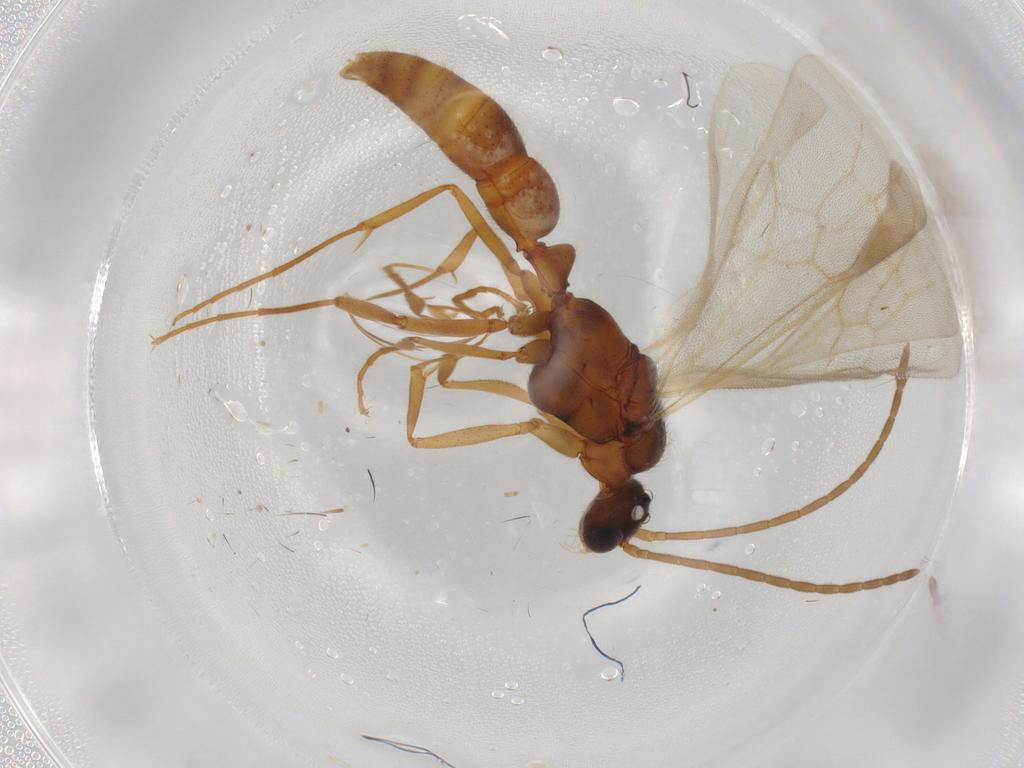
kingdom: Animalia
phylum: Arthropoda
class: Insecta
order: Hymenoptera
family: Formicidae
